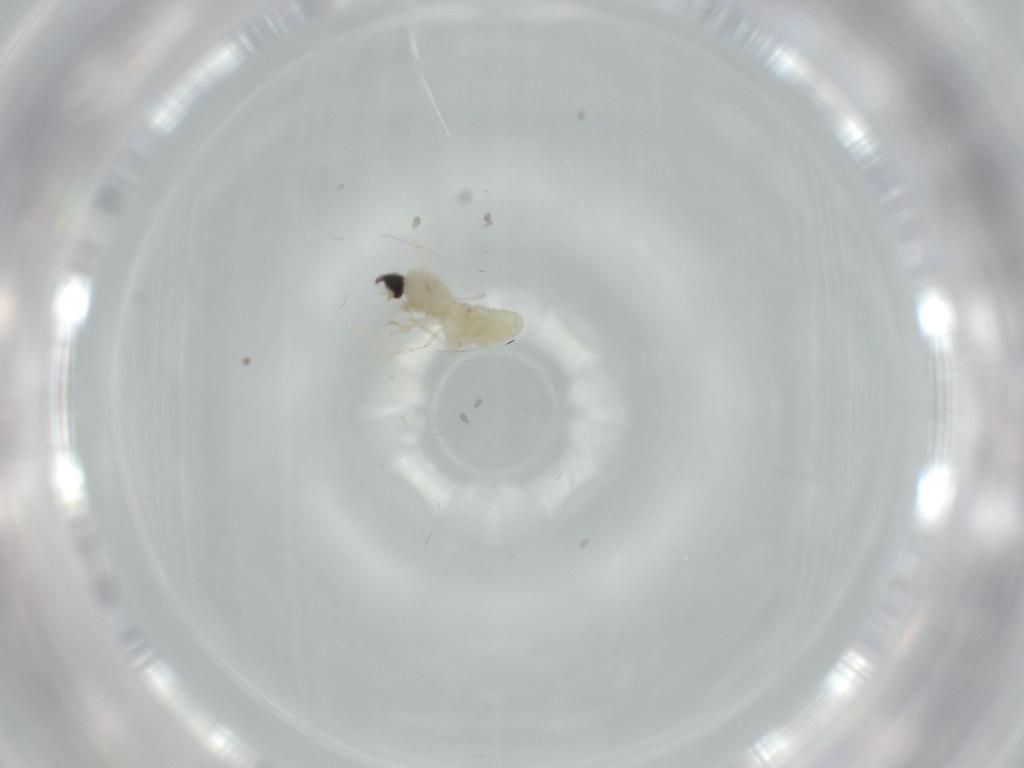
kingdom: Animalia
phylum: Arthropoda
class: Insecta
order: Diptera
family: Cecidomyiidae
